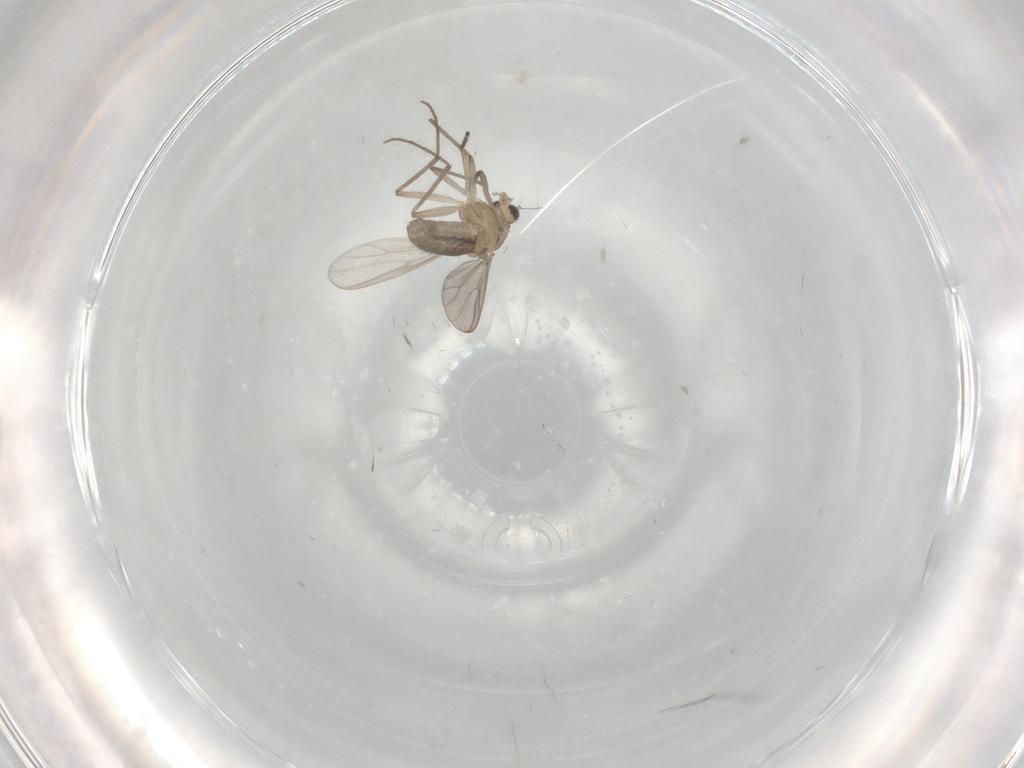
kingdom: Animalia
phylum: Arthropoda
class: Insecta
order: Diptera
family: Chironomidae
